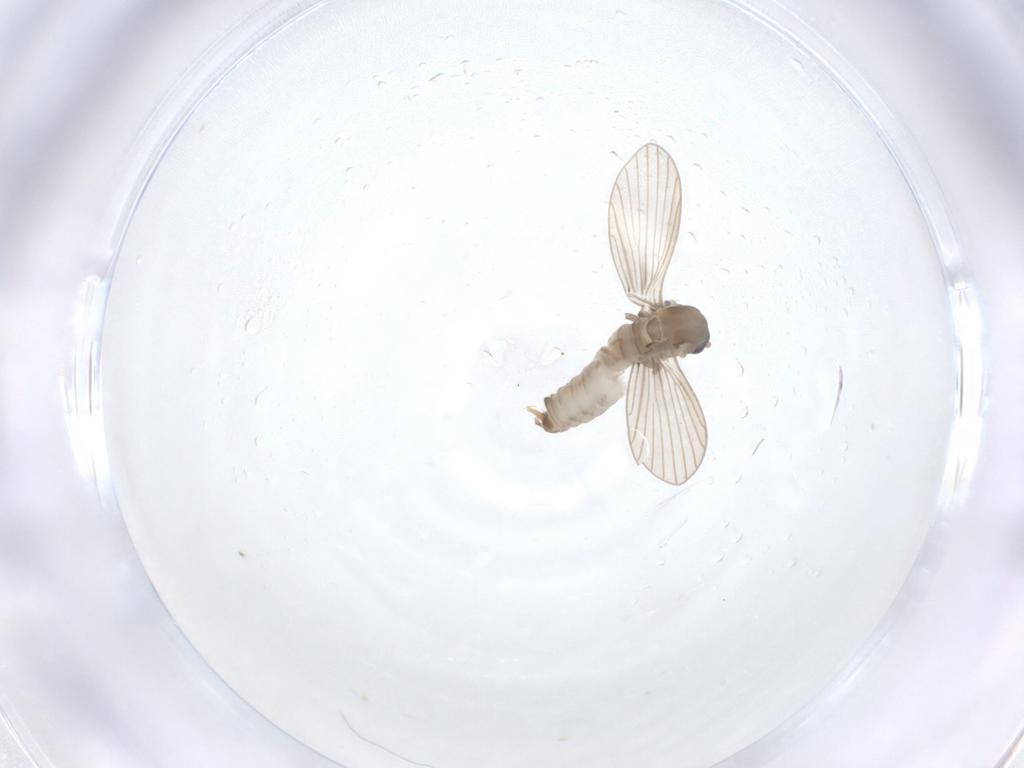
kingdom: Animalia
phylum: Arthropoda
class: Insecta
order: Diptera
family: Psychodidae
